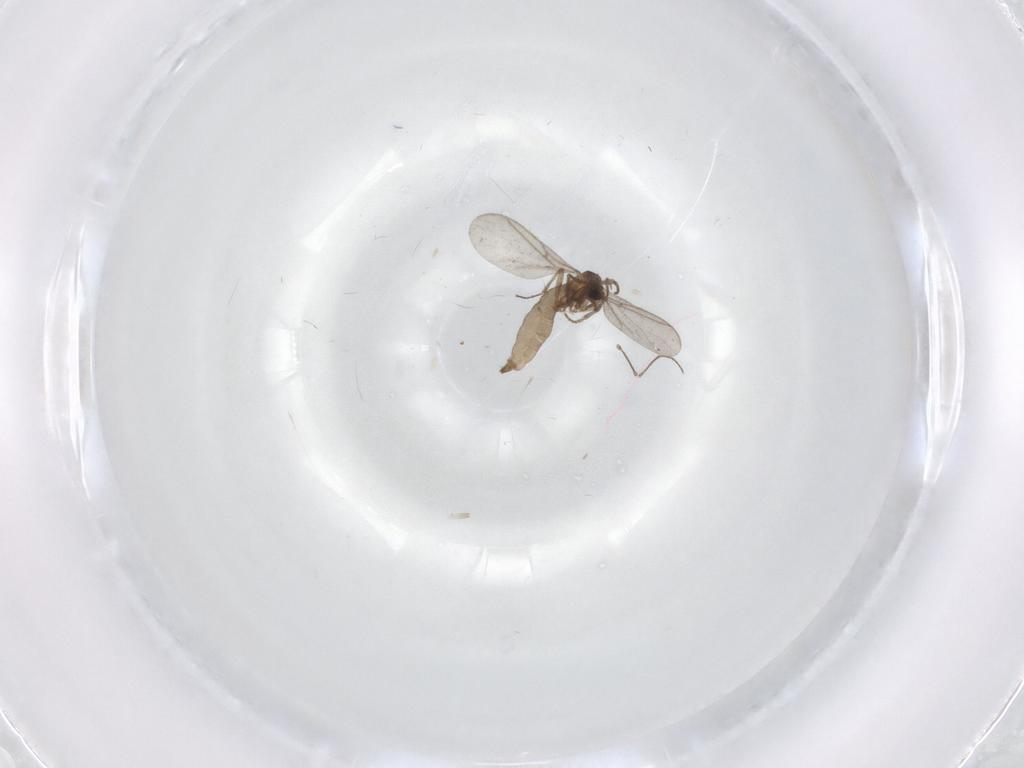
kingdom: Animalia
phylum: Arthropoda
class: Insecta
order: Diptera
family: Sciaridae
